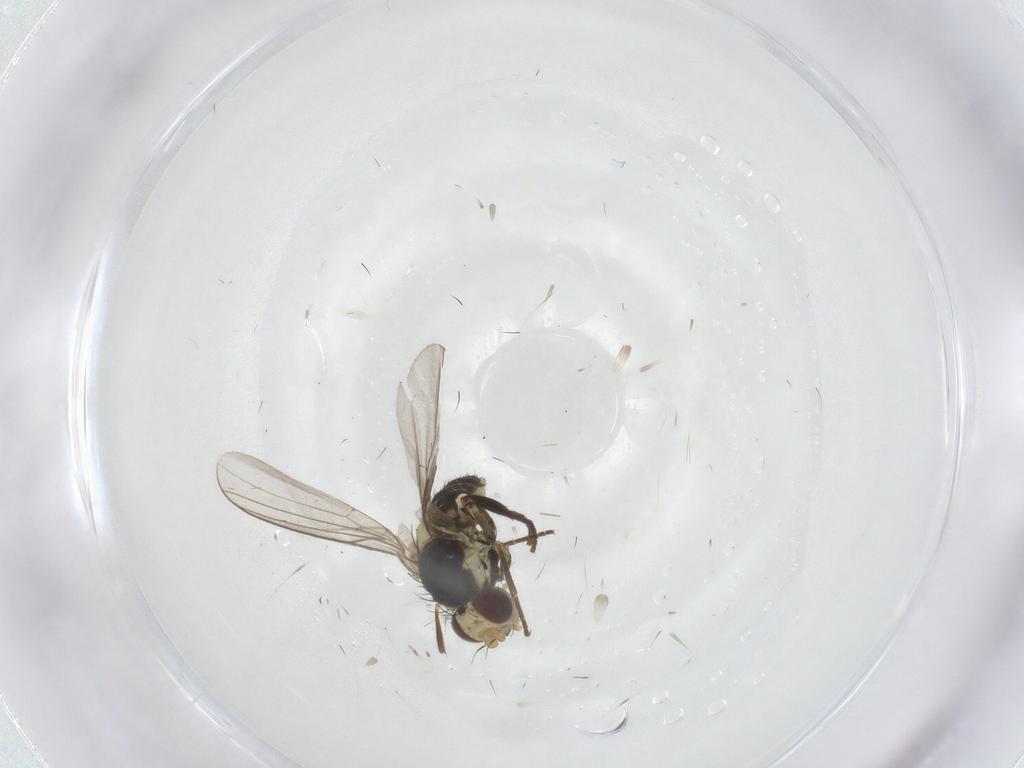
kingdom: Animalia
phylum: Arthropoda
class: Insecta
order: Diptera
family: Agromyzidae
